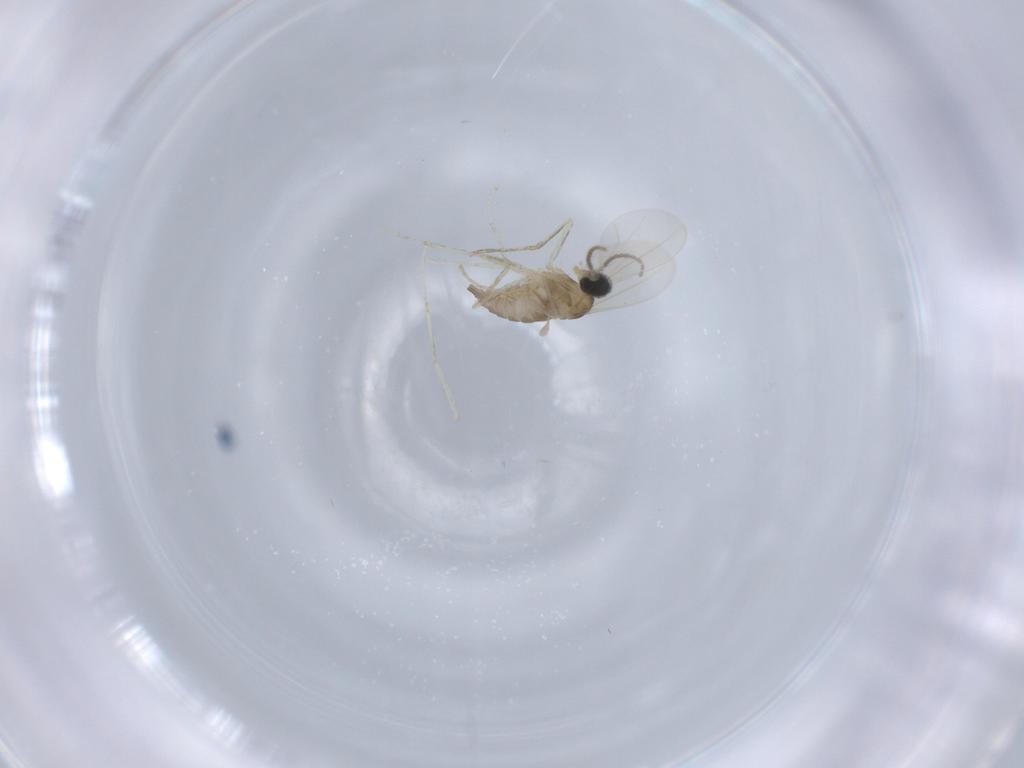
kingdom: Animalia
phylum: Arthropoda
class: Insecta
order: Diptera
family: Cecidomyiidae
